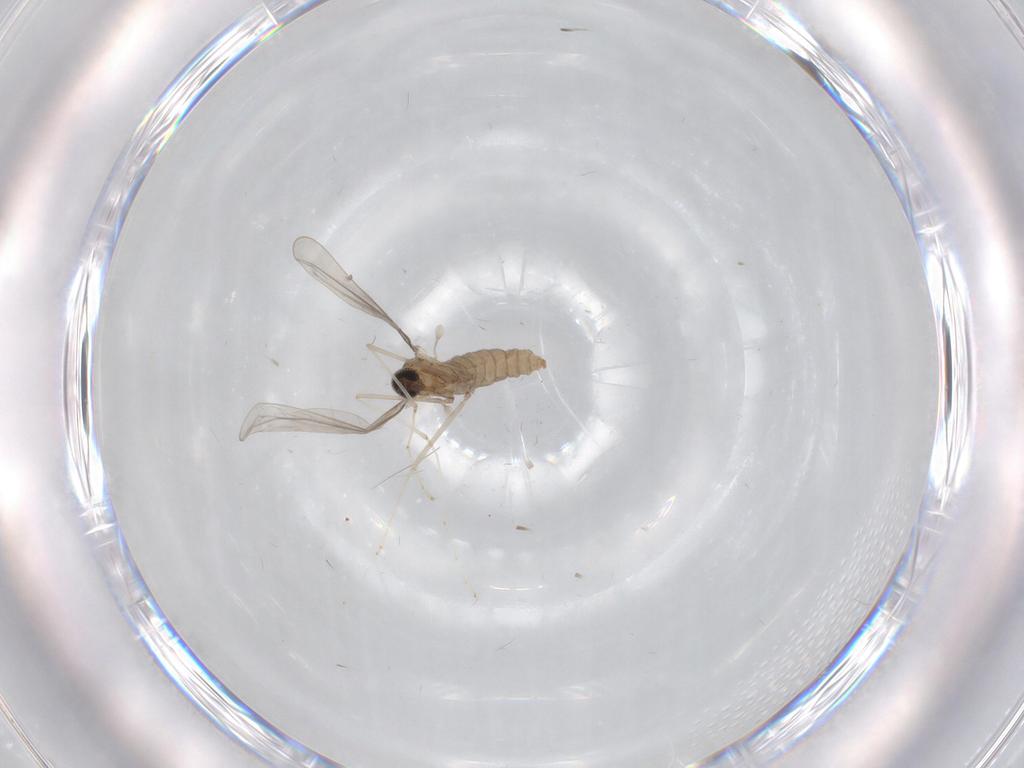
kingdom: Animalia
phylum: Arthropoda
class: Insecta
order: Diptera
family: Cecidomyiidae
